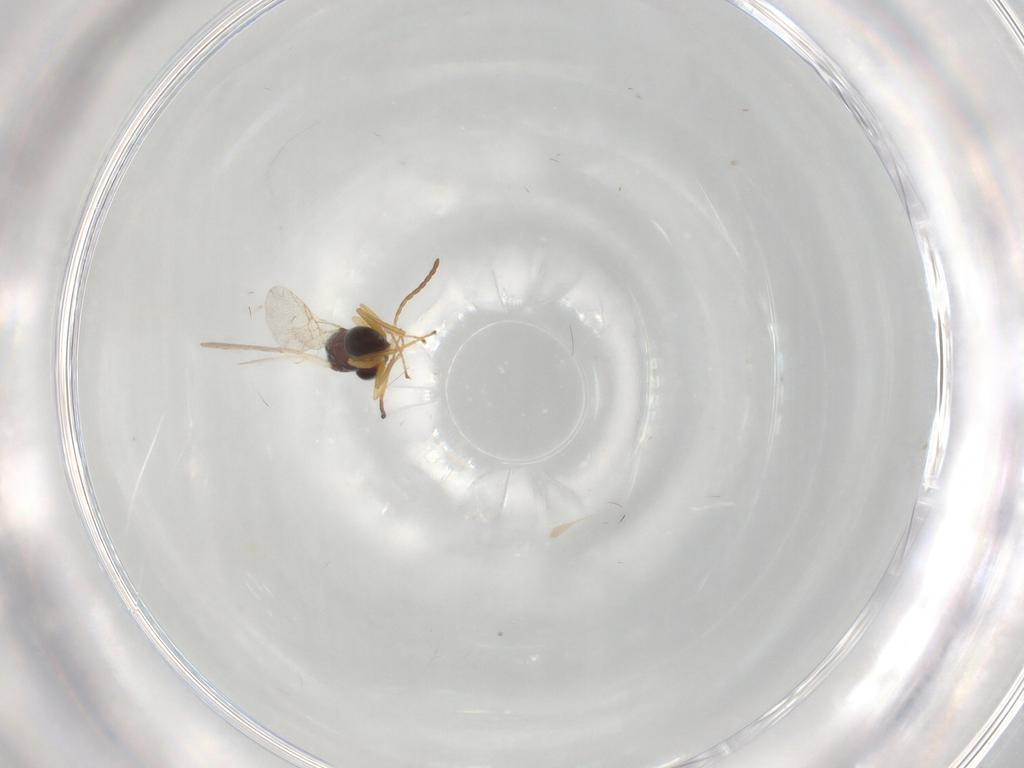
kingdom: Animalia
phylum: Arthropoda
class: Insecta
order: Hymenoptera
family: Figitidae
